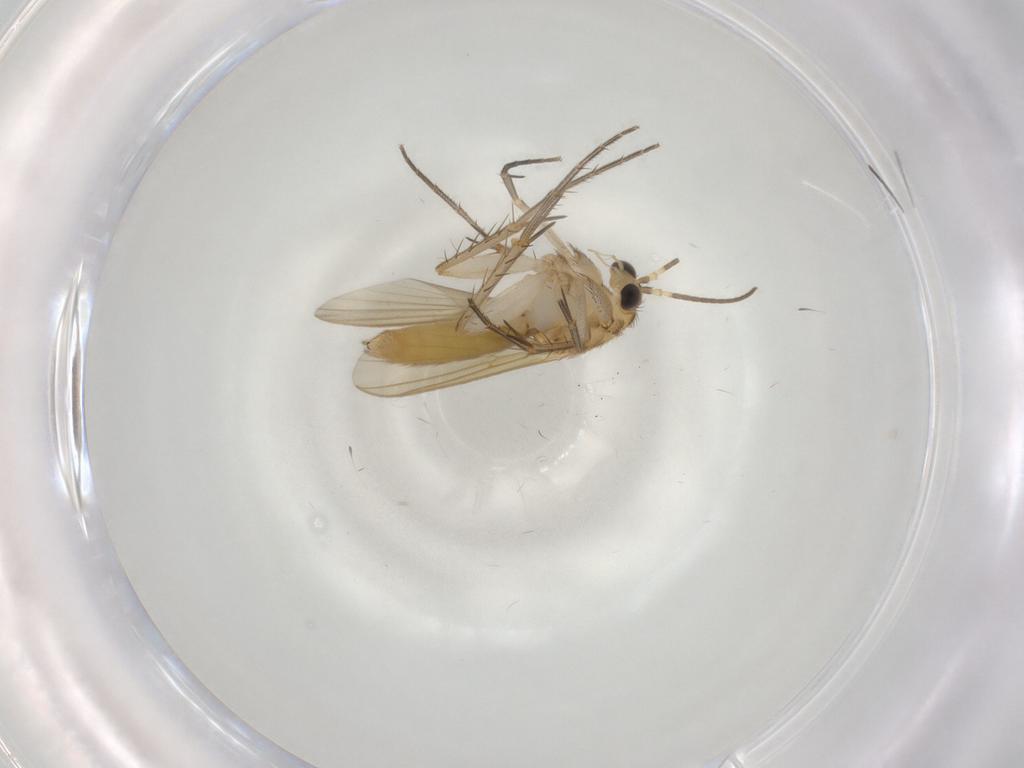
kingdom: Animalia
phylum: Arthropoda
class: Insecta
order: Diptera
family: Mycetophilidae
